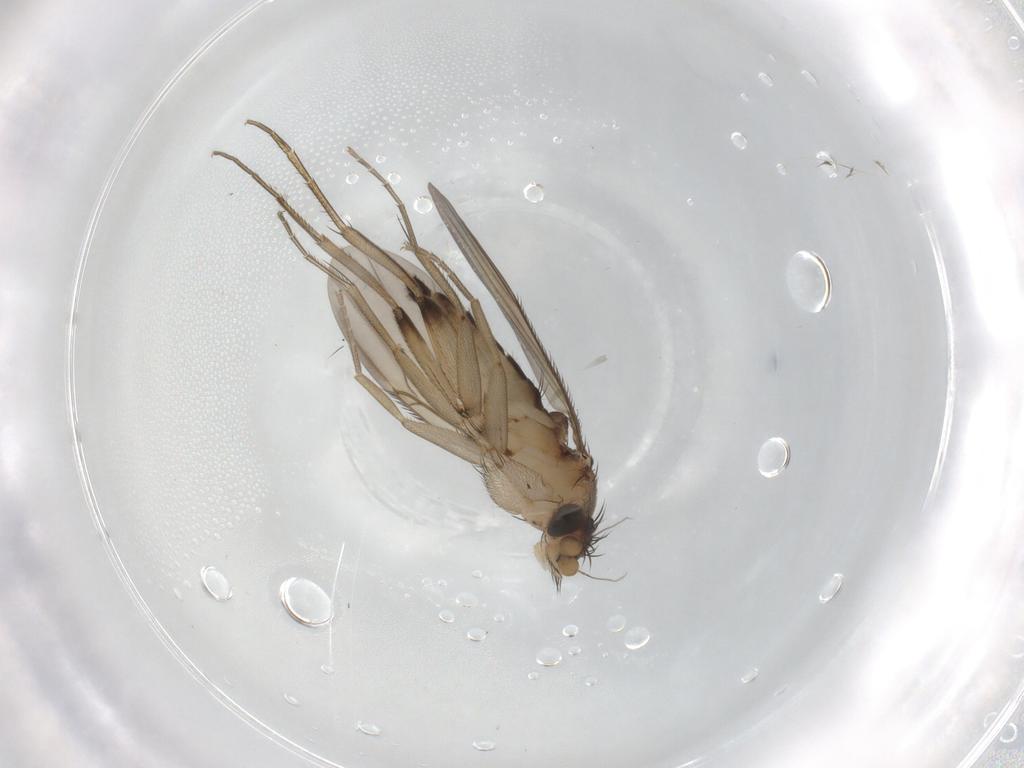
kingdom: Animalia
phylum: Arthropoda
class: Insecta
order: Diptera
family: Phoridae
